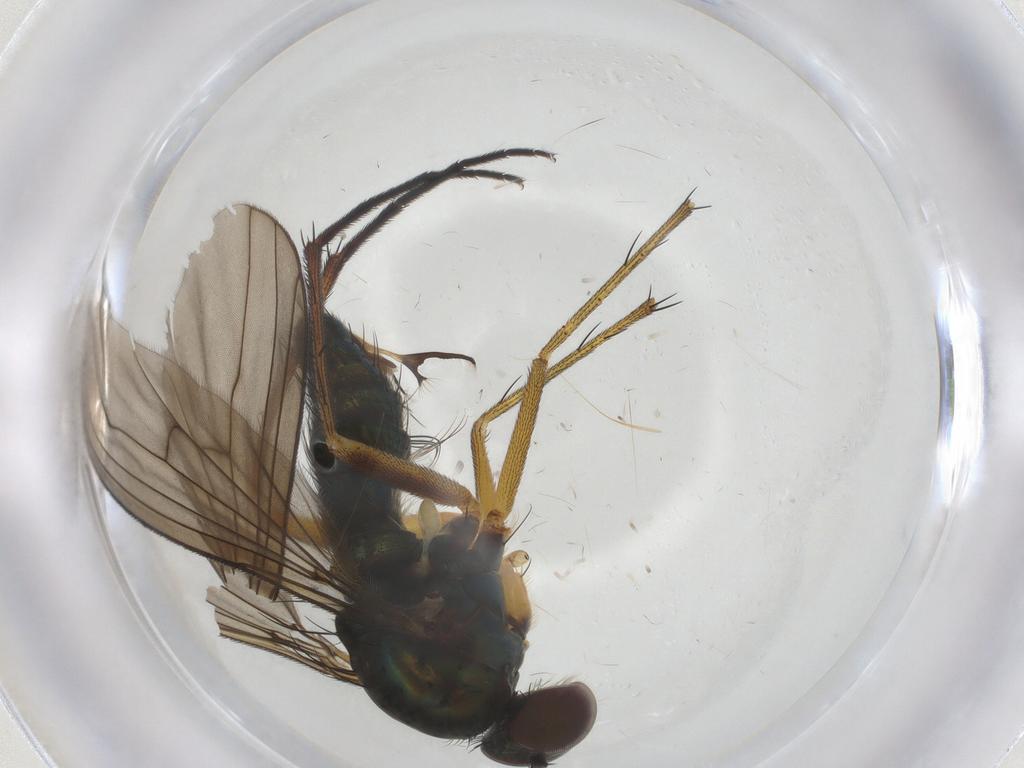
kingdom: Animalia
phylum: Arthropoda
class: Insecta
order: Diptera
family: Dolichopodidae
